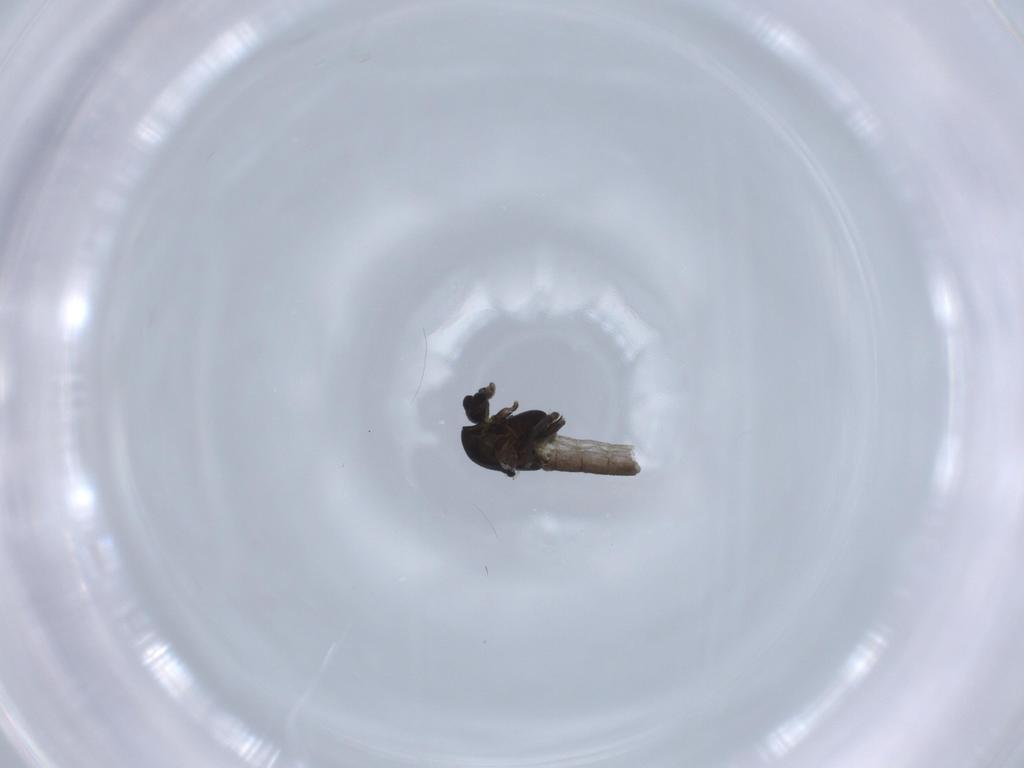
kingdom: Animalia
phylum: Arthropoda
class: Insecta
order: Diptera
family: Chironomidae
